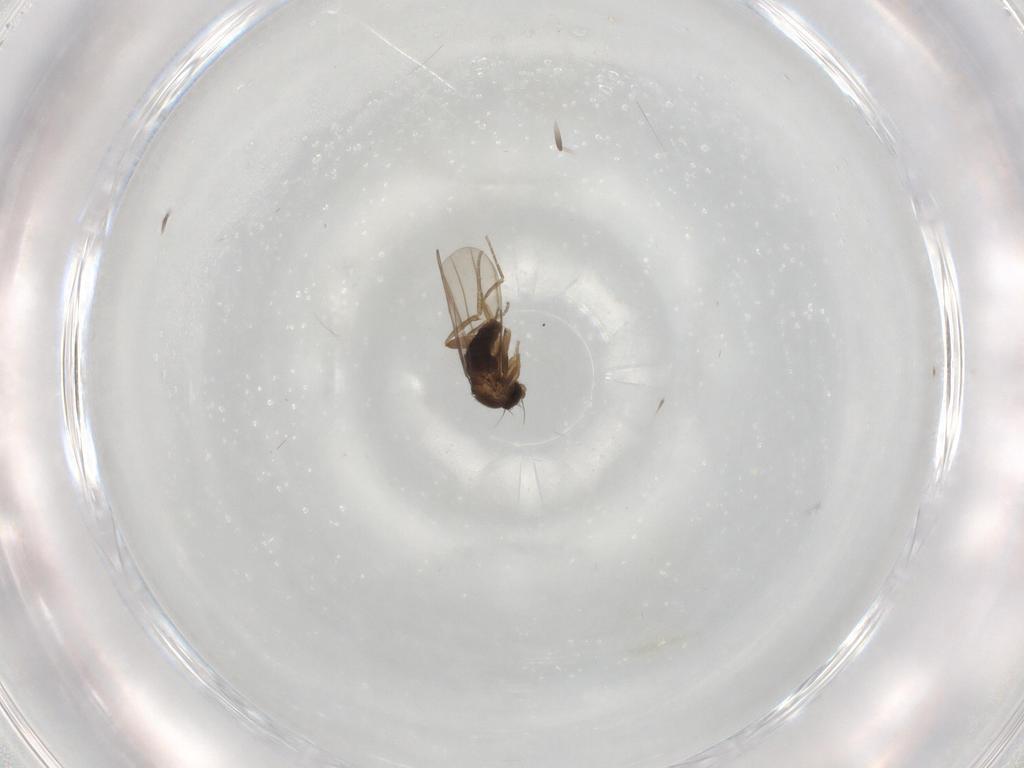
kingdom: Animalia
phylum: Arthropoda
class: Insecta
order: Diptera
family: Phoridae
